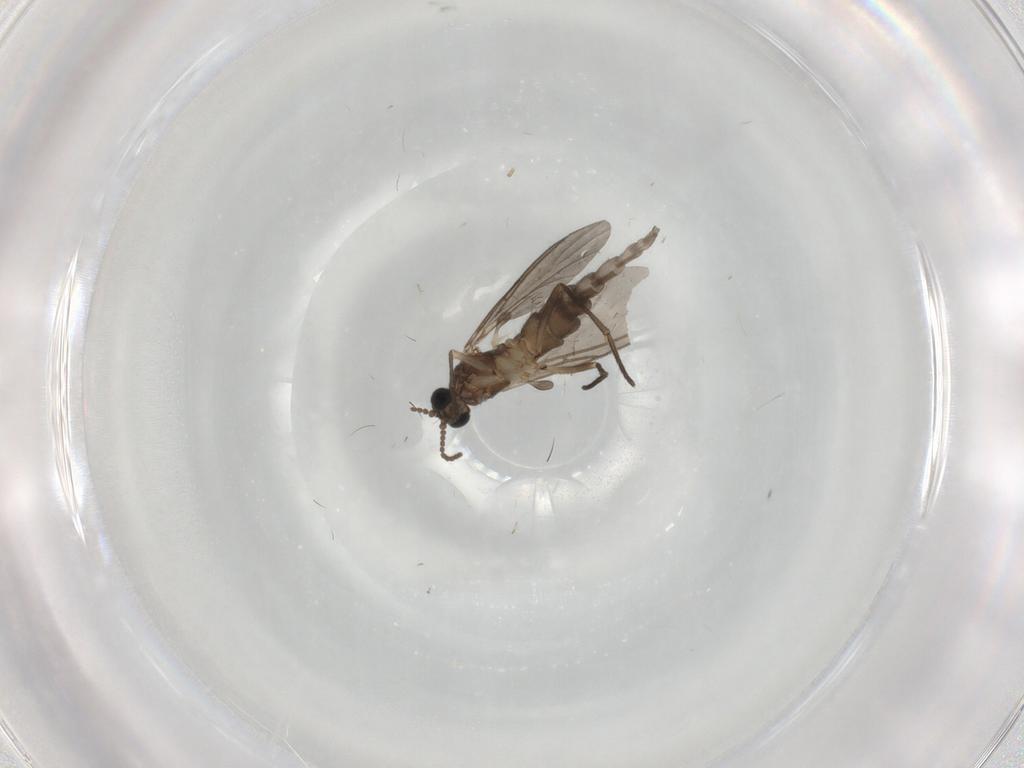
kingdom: Animalia
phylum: Arthropoda
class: Insecta
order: Diptera
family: Sciaridae
